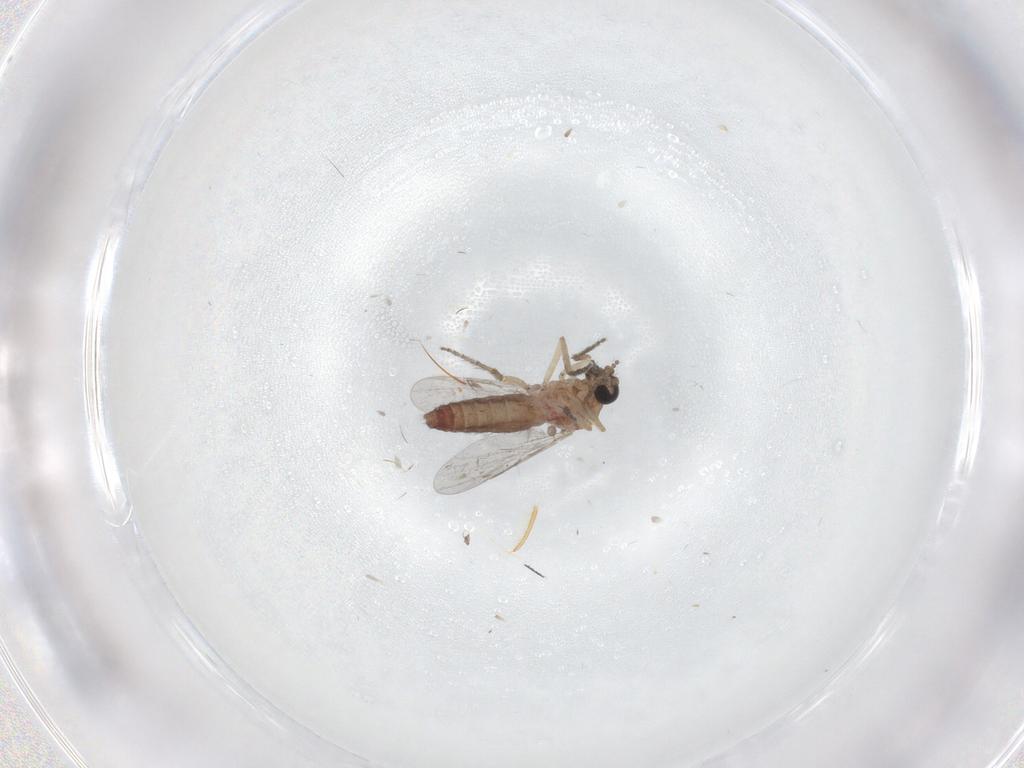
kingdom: Animalia
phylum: Arthropoda
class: Insecta
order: Diptera
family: Ceratopogonidae
